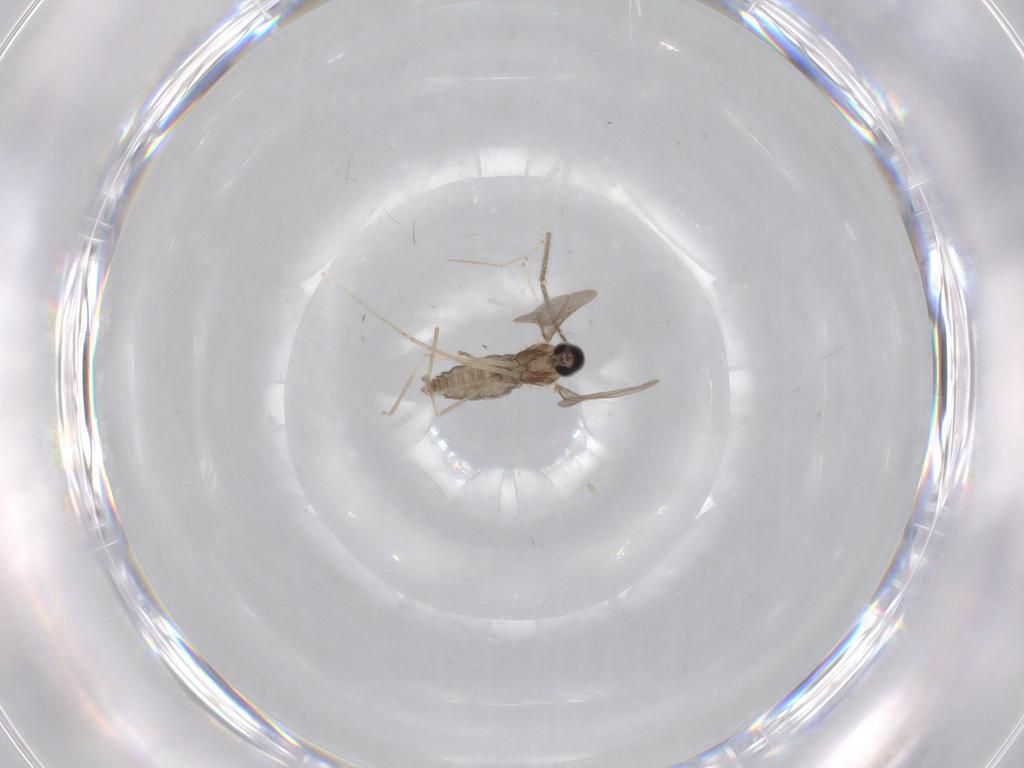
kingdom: Animalia
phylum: Arthropoda
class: Insecta
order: Diptera
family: Cecidomyiidae
